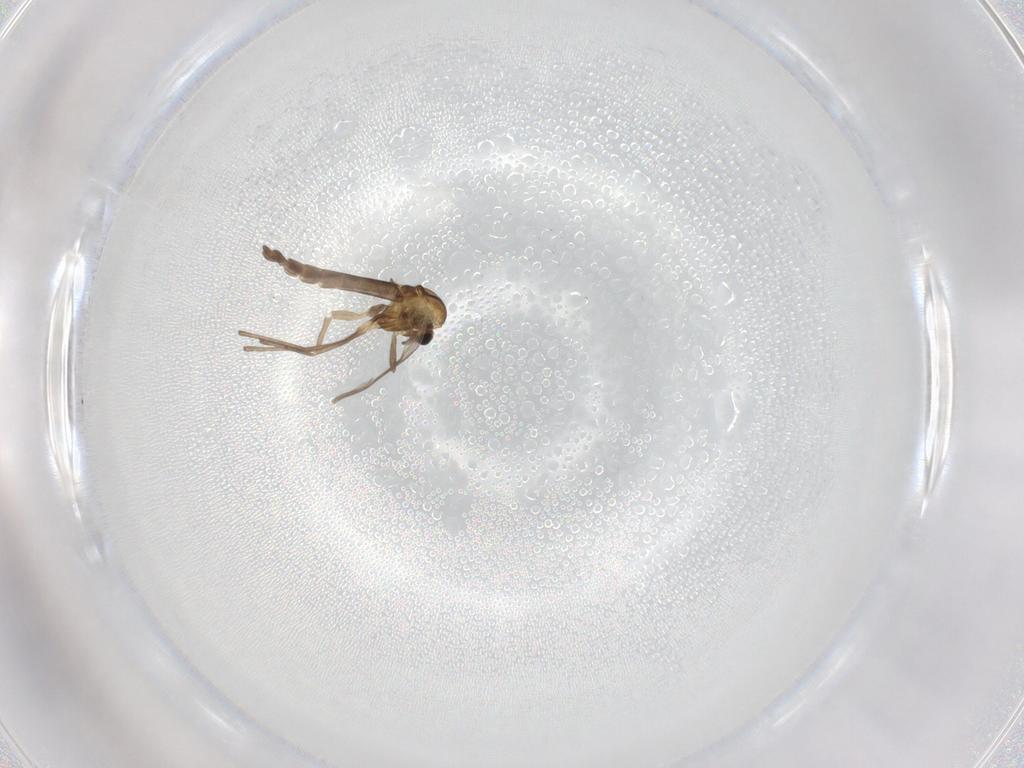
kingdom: Animalia
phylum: Arthropoda
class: Insecta
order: Diptera
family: Chironomidae
